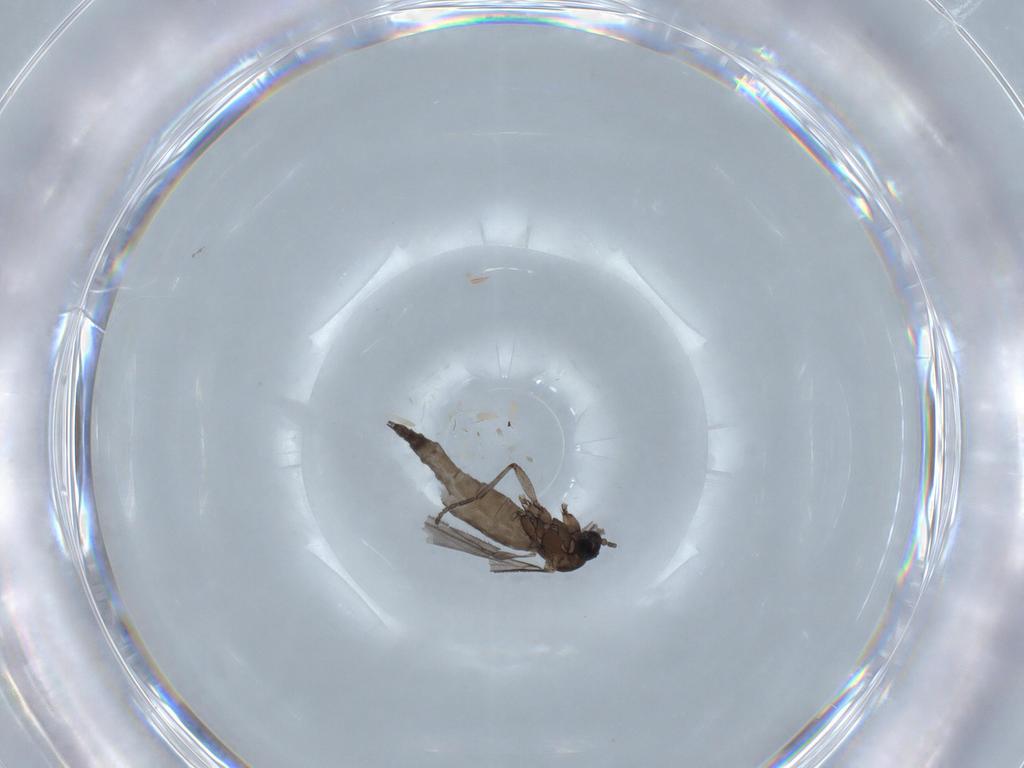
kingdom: Animalia
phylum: Arthropoda
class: Insecta
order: Diptera
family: Sciaridae
